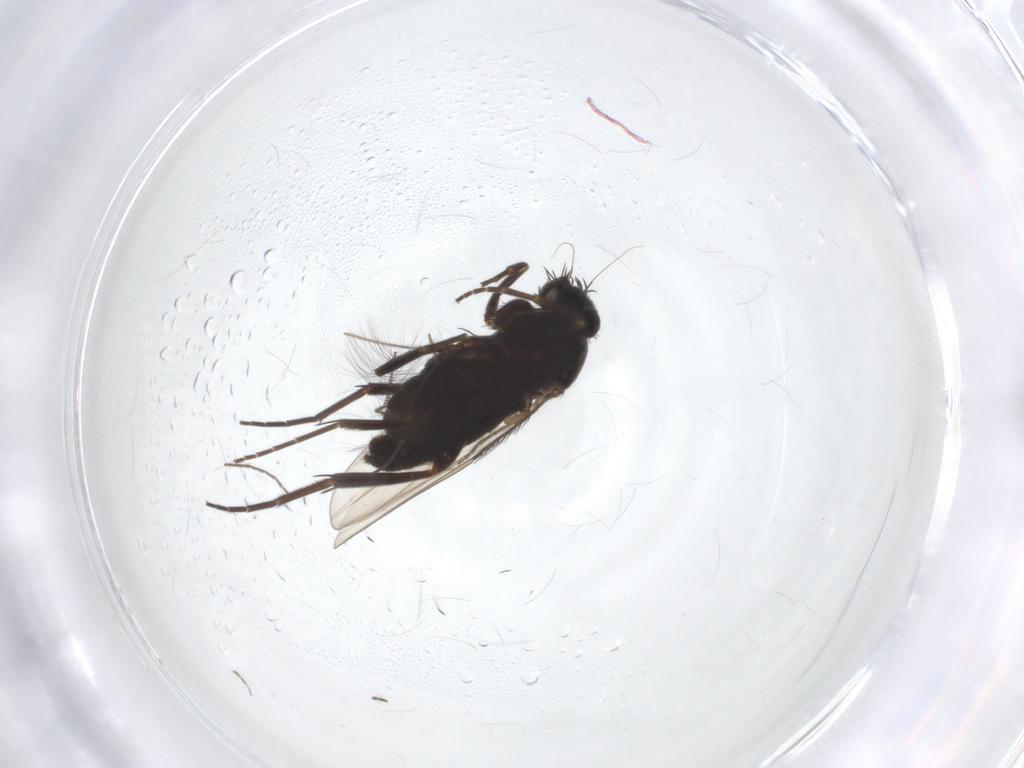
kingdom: Animalia
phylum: Arthropoda
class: Insecta
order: Diptera
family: Phoridae
